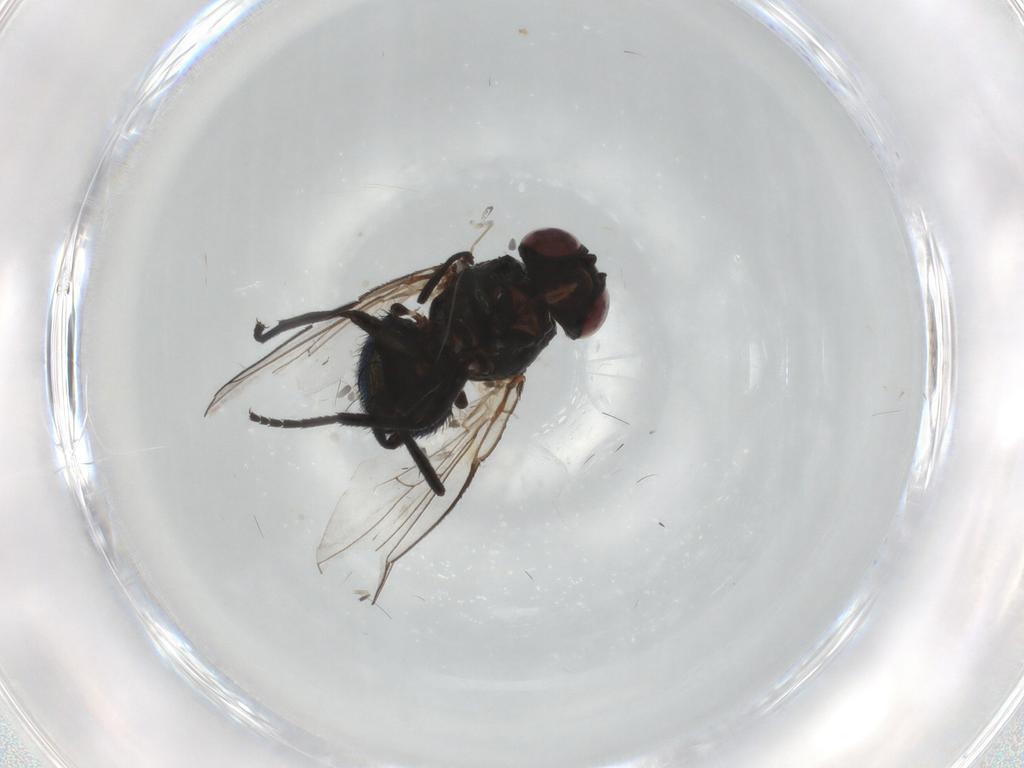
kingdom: Animalia
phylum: Arthropoda
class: Insecta
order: Diptera
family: Agromyzidae
